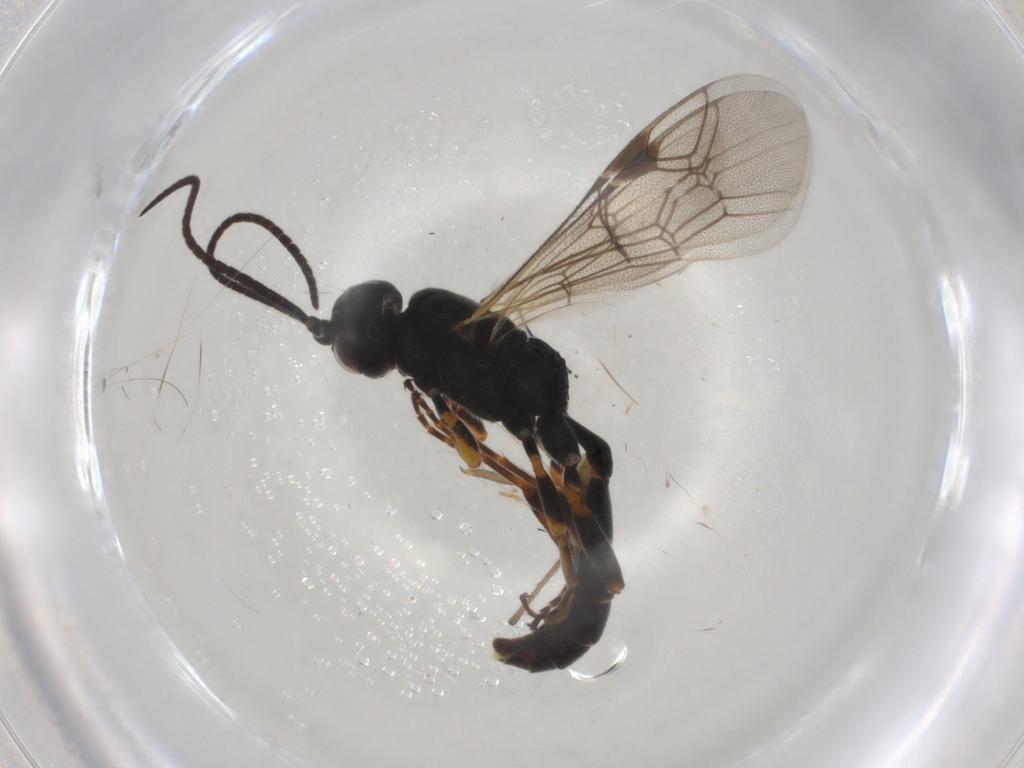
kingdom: Animalia
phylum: Arthropoda
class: Insecta
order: Hymenoptera
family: Ichneumonidae
